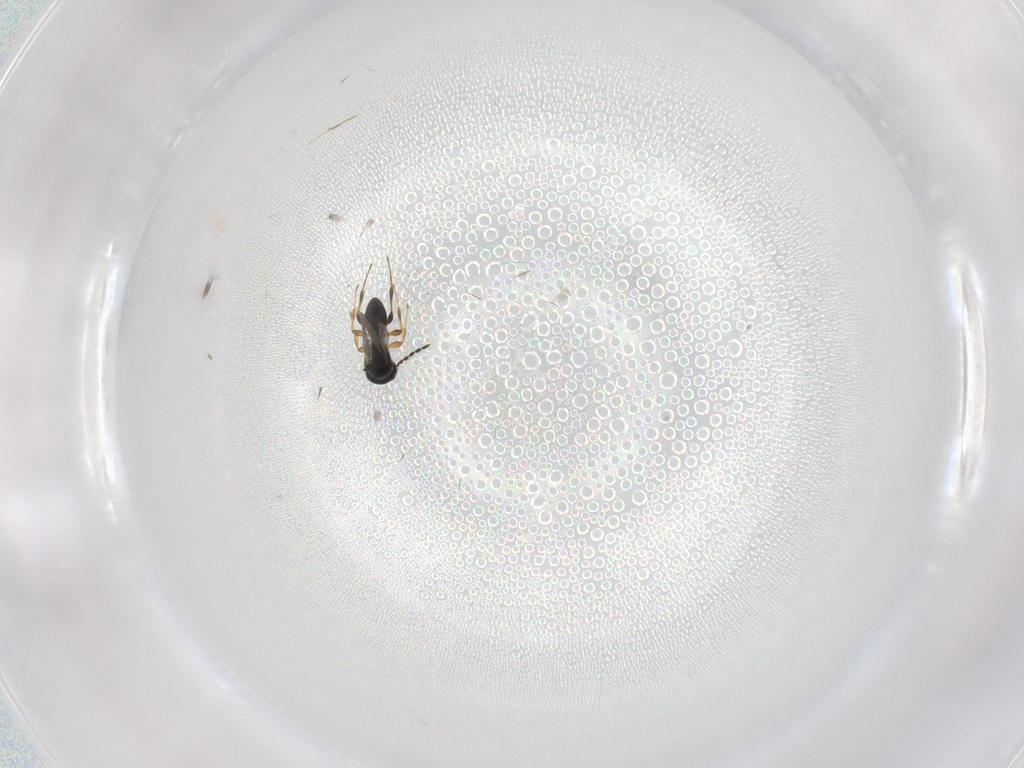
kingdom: Animalia
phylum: Arthropoda
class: Insecta
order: Hymenoptera
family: Platygastridae
